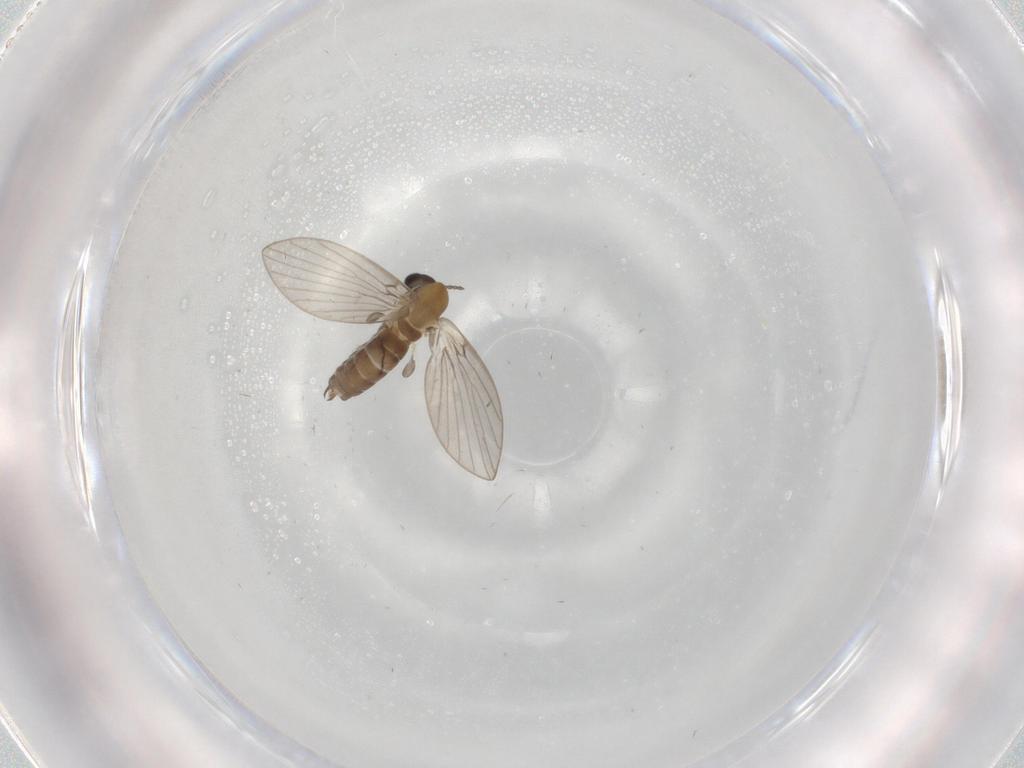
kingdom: Animalia
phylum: Arthropoda
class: Insecta
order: Diptera
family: Psychodidae
